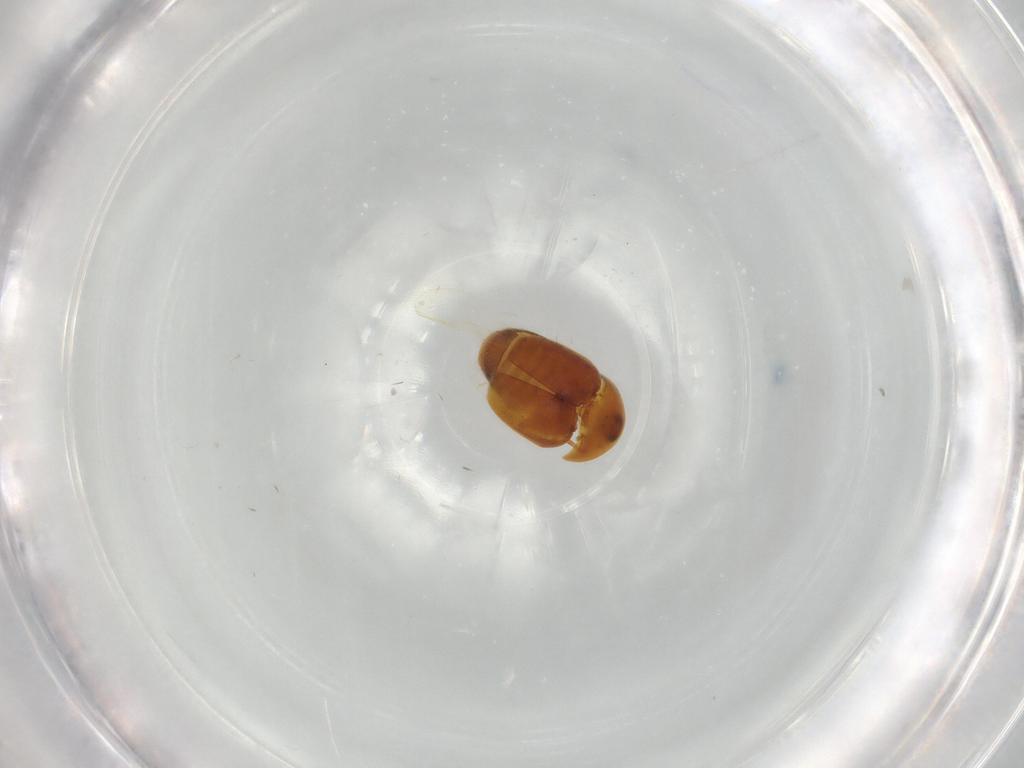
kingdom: Animalia
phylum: Arthropoda
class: Insecta
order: Coleoptera
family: Corylophidae
